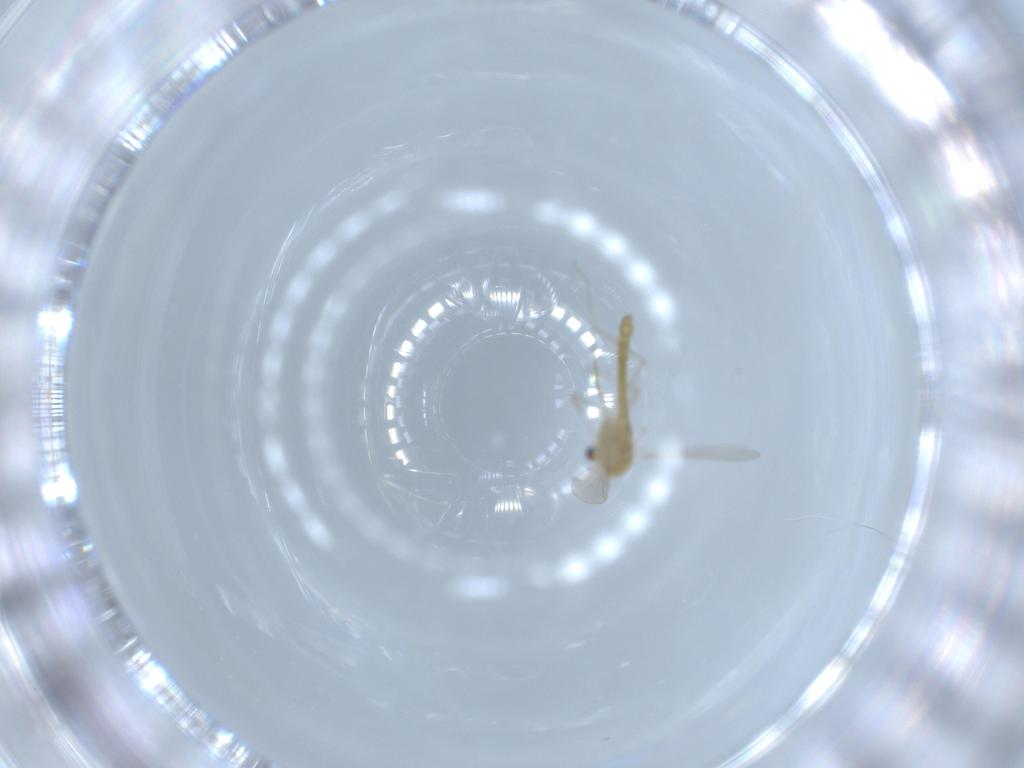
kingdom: Animalia
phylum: Arthropoda
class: Insecta
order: Diptera
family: Chironomidae
